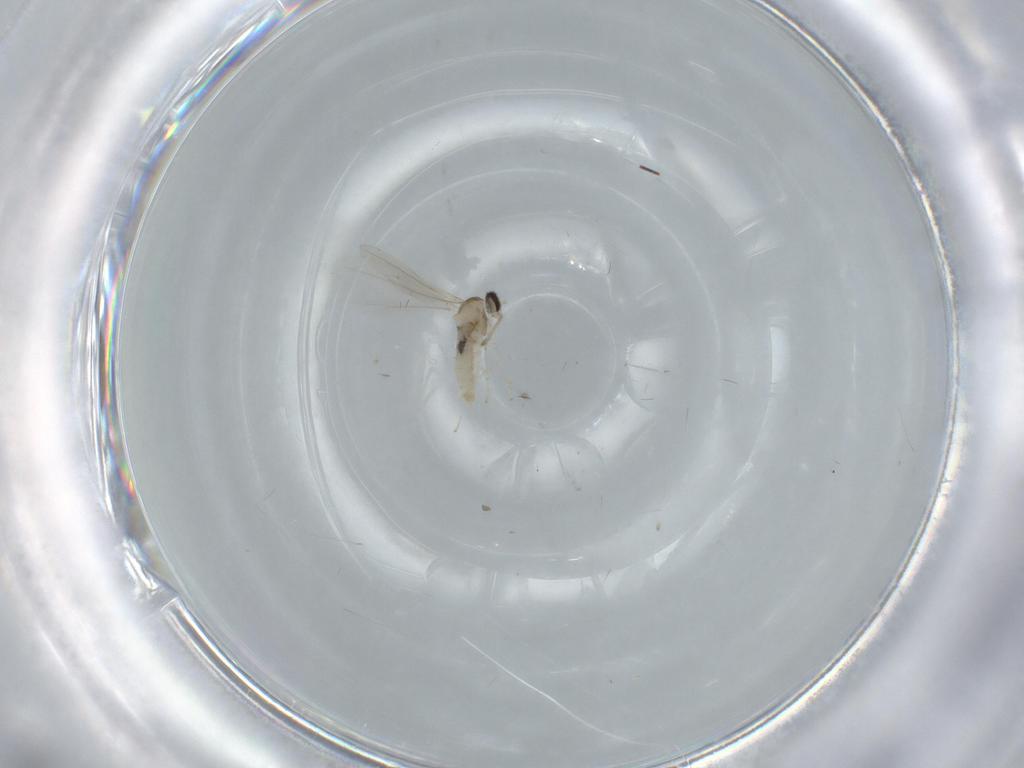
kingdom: Animalia
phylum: Arthropoda
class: Insecta
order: Diptera
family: Cecidomyiidae
